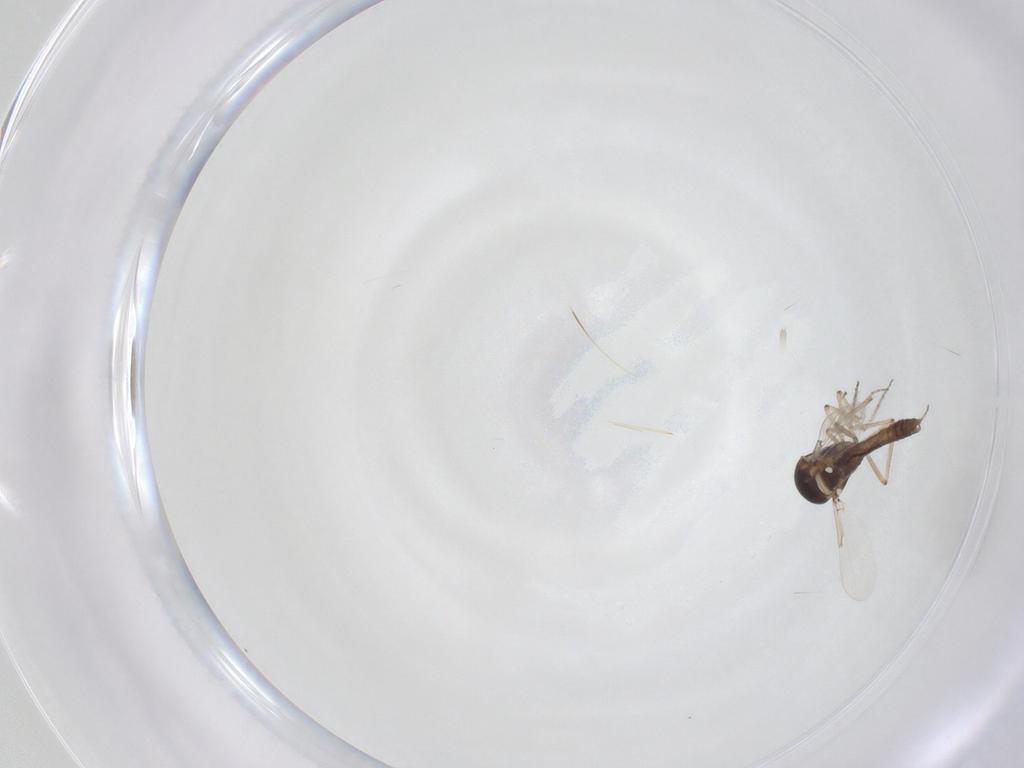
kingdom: Animalia
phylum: Arthropoda
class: Insecta
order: Diptera
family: Ceratopogonidae
